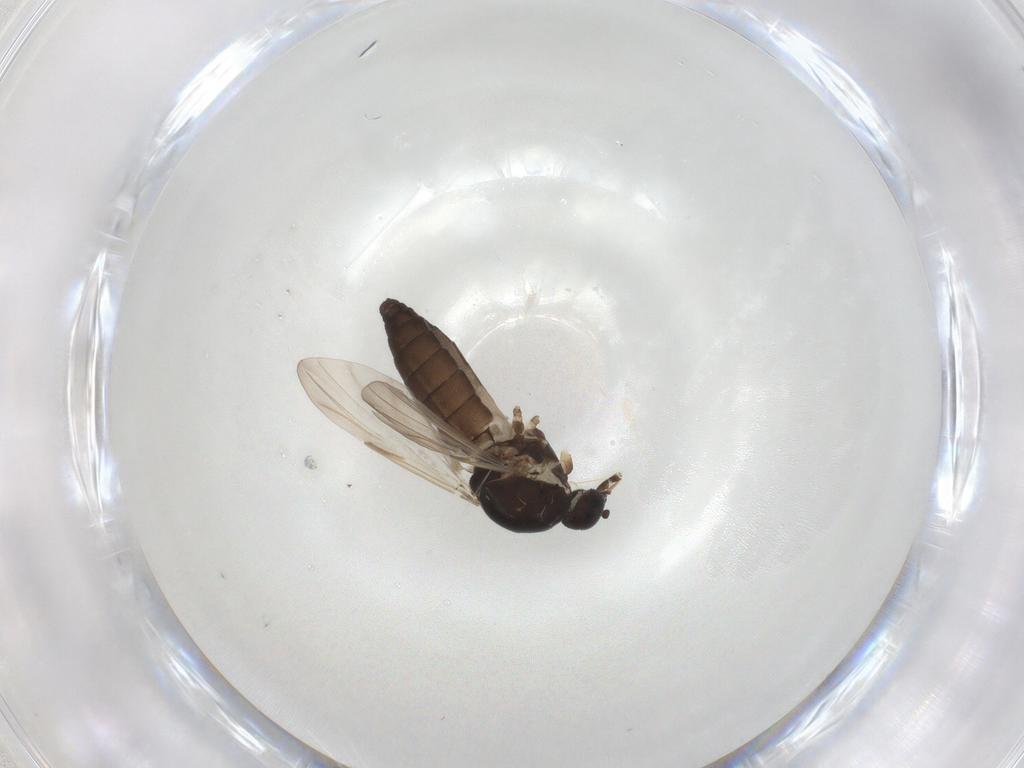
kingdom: Animalia
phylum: Arthropoda
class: Insecta
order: Diptera
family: Ceratopogonidae
